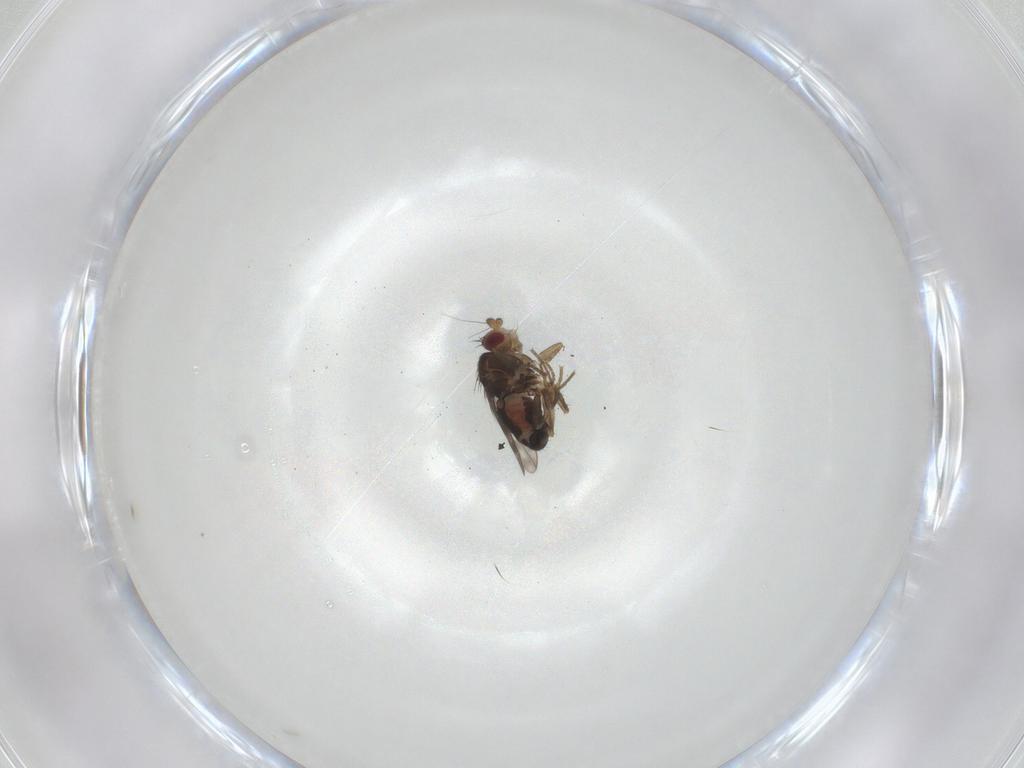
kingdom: Animalia
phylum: Arthropoda
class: Insecta
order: Diptera
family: Sphaeroceridae
